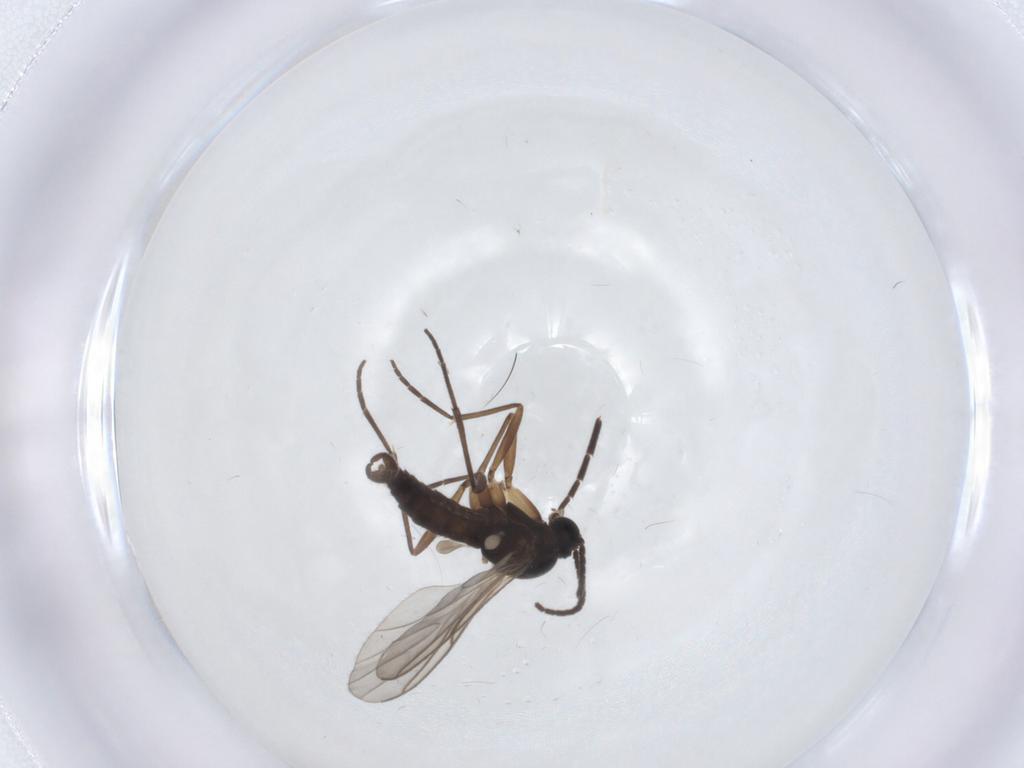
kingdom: Animalia
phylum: Arthropoda
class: Insecta
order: Diptera
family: Sciaridae
